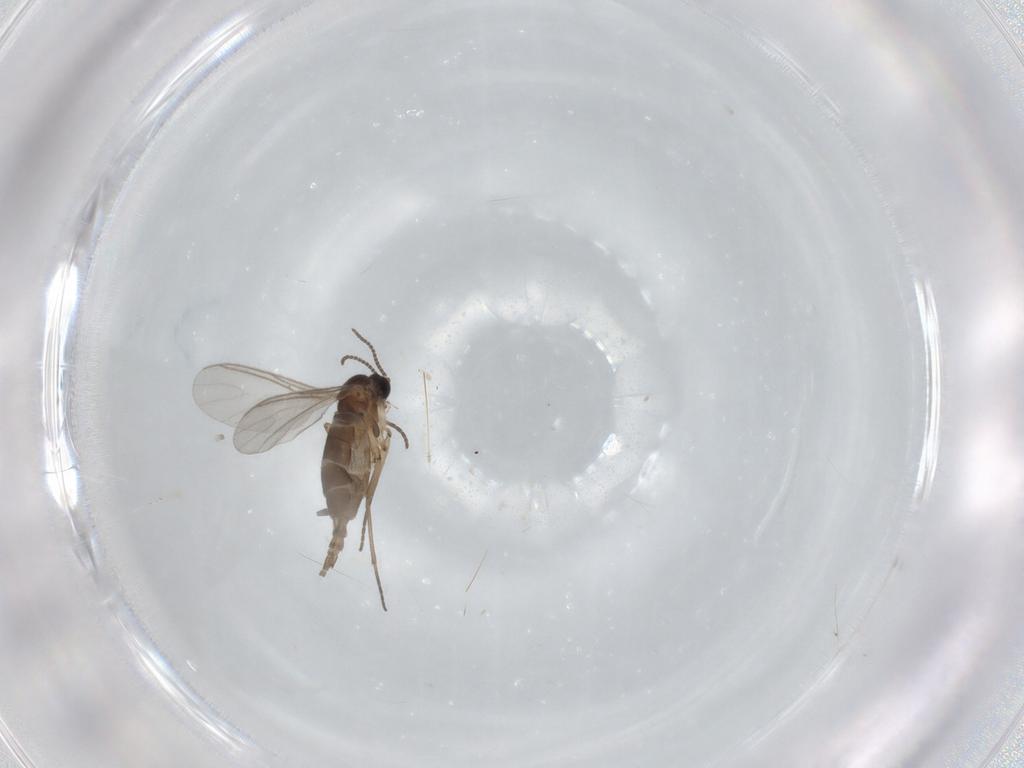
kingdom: Animalia
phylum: Arthropoda
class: Insecta
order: Diptera
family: Sciaridae
